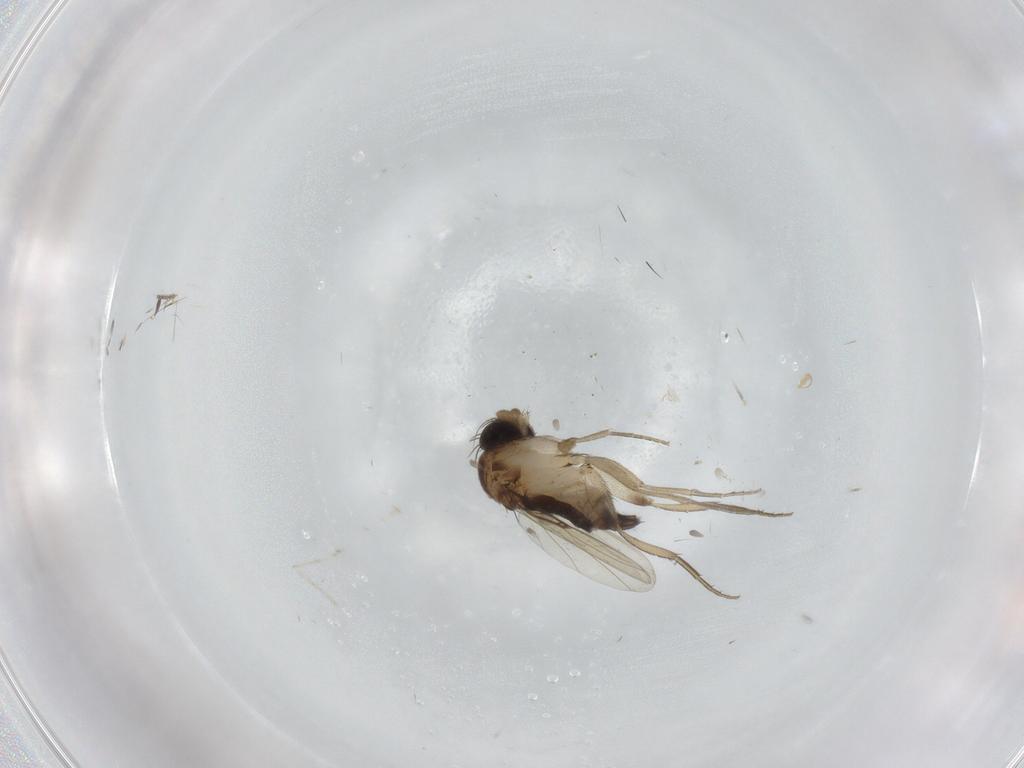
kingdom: Animalia
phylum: Arthropoda
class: Insecta
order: Diptera
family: Phoridae
